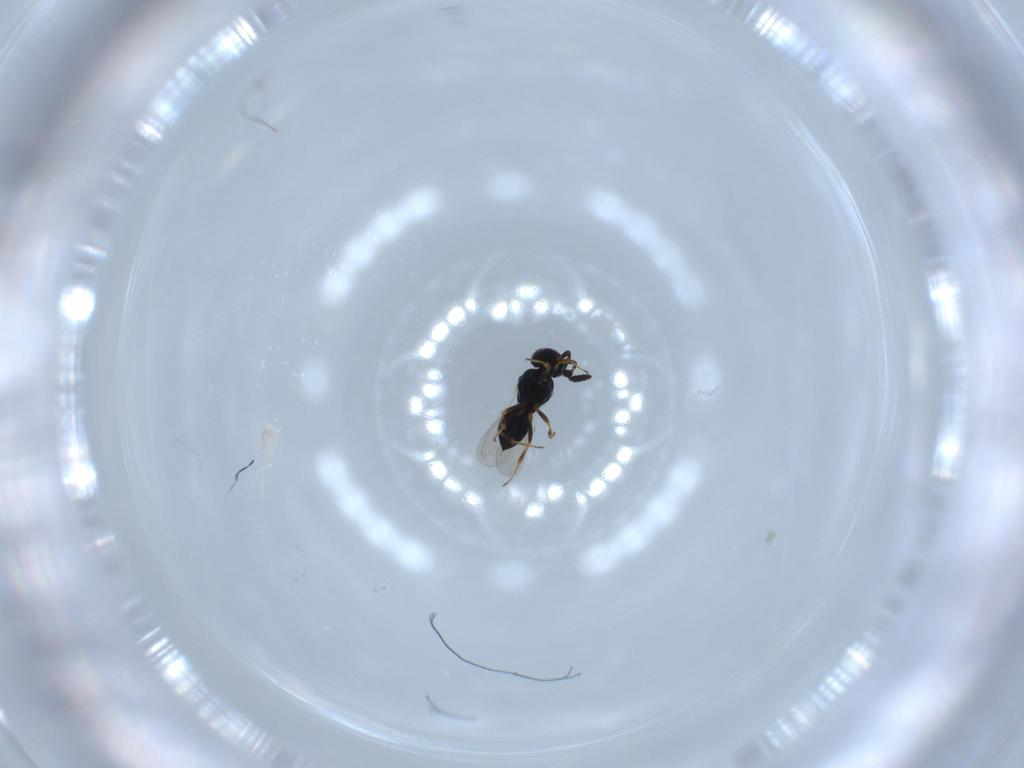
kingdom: Animalia
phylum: Arthropoda
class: Insecta
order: Hymenoptera
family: Scelionidae
